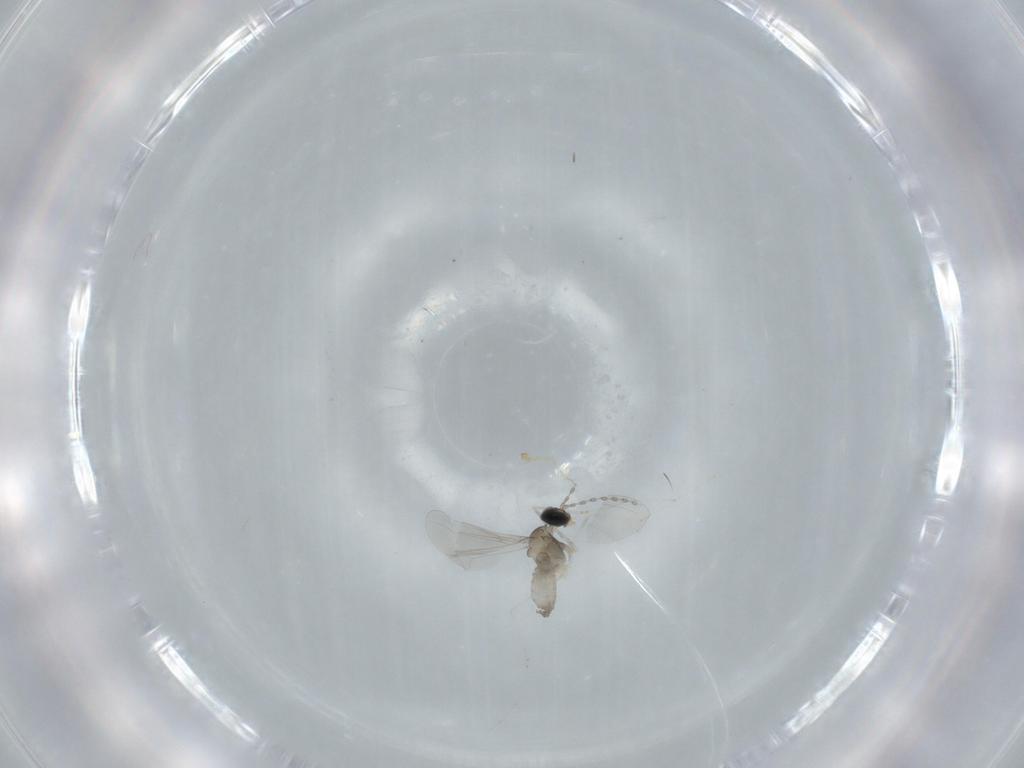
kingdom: Animalia
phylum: Arthropoda
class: Insecta
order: Diptera
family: Cecidomyiidae
